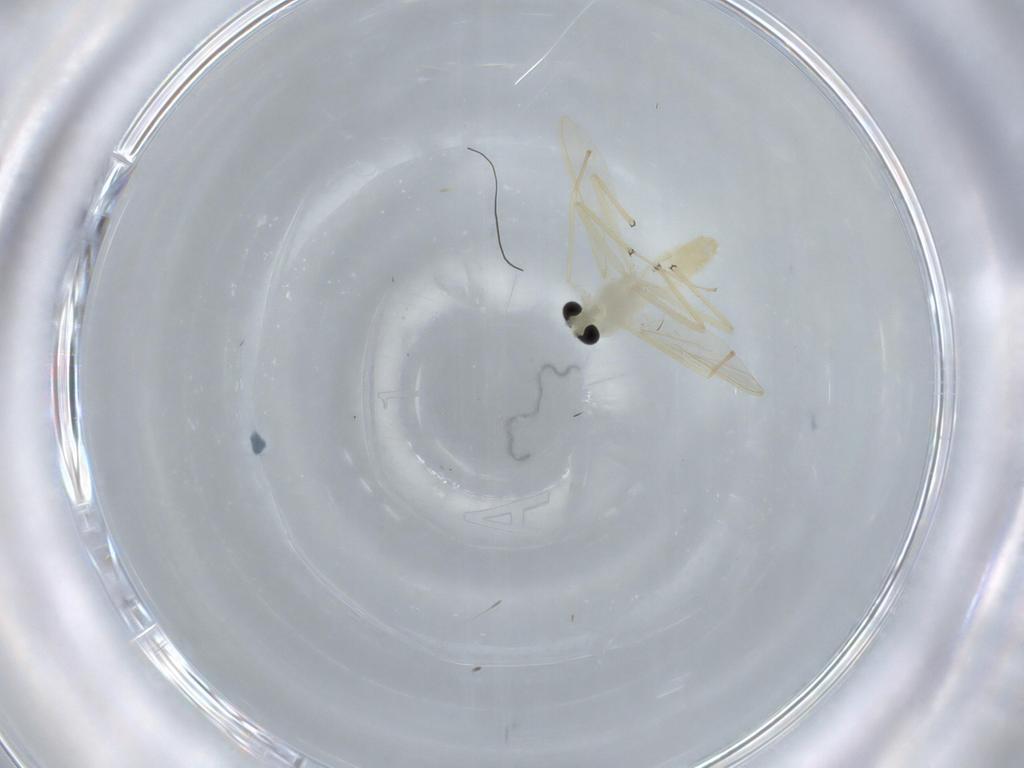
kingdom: Animalia
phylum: Arthropoda
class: Insecta
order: Diptera
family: Chironomidae
